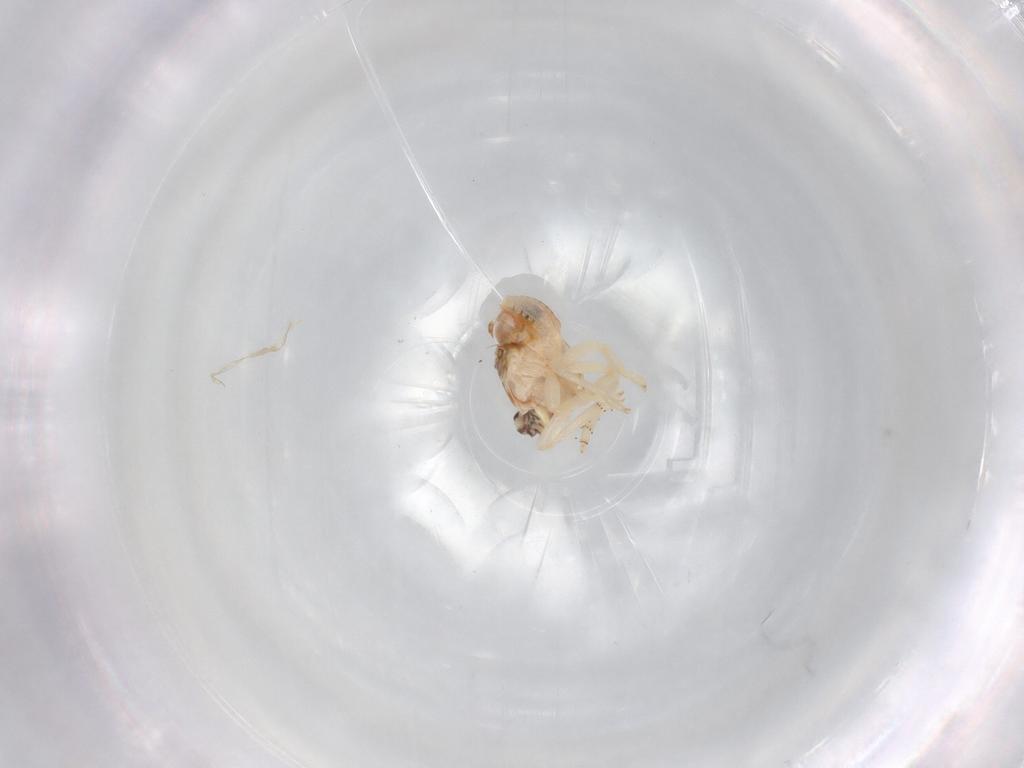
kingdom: Animalia
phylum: Arthropoda
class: Insecta
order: Hemiptera
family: Nogodinidae
